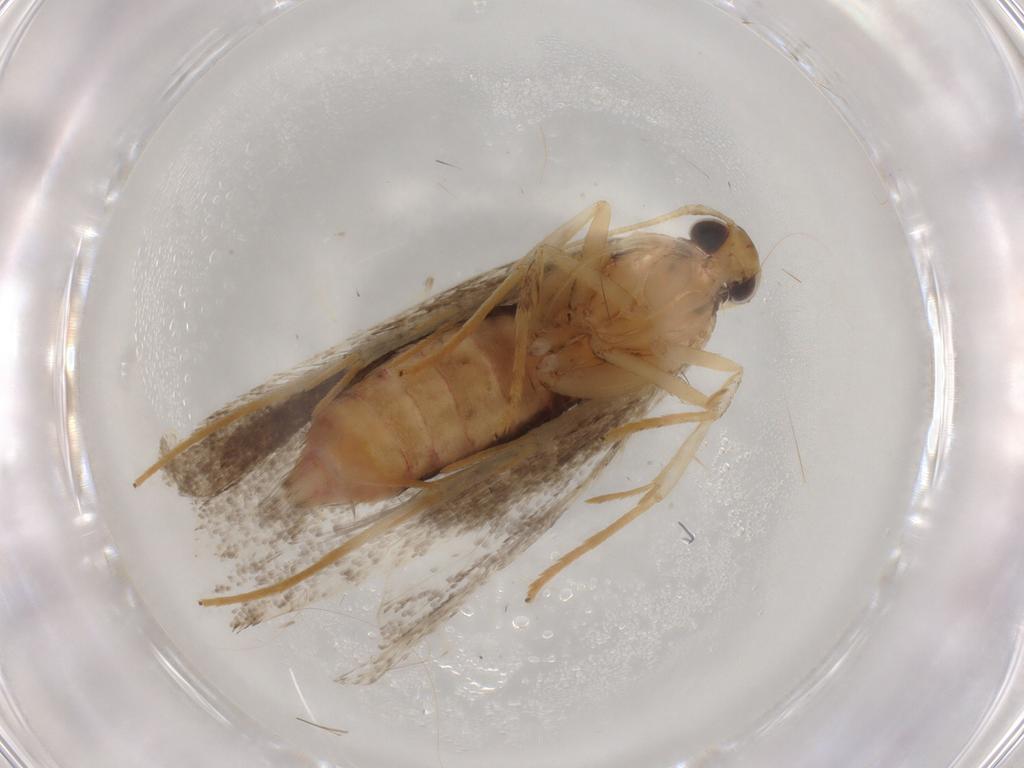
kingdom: Animalia
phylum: Arthropoda
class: Insecta
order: Lepidoptera
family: Lecithoceridae
